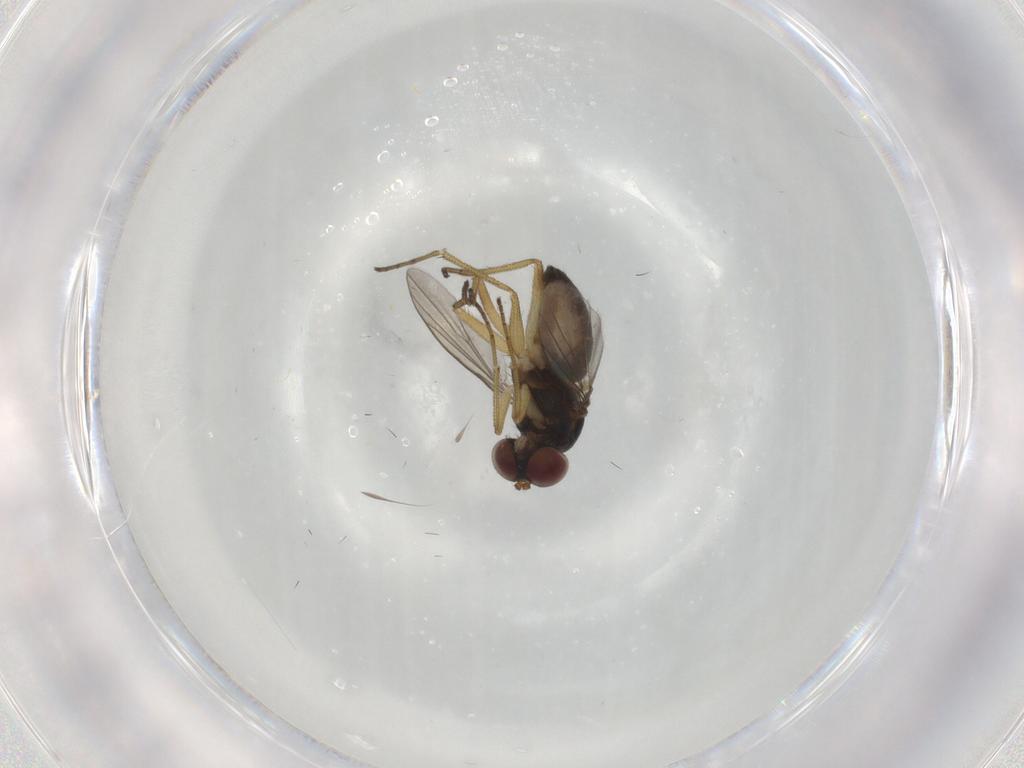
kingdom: Animalia
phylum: Arthropoda
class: Insecta
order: Diptera
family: Dolichopodidae
